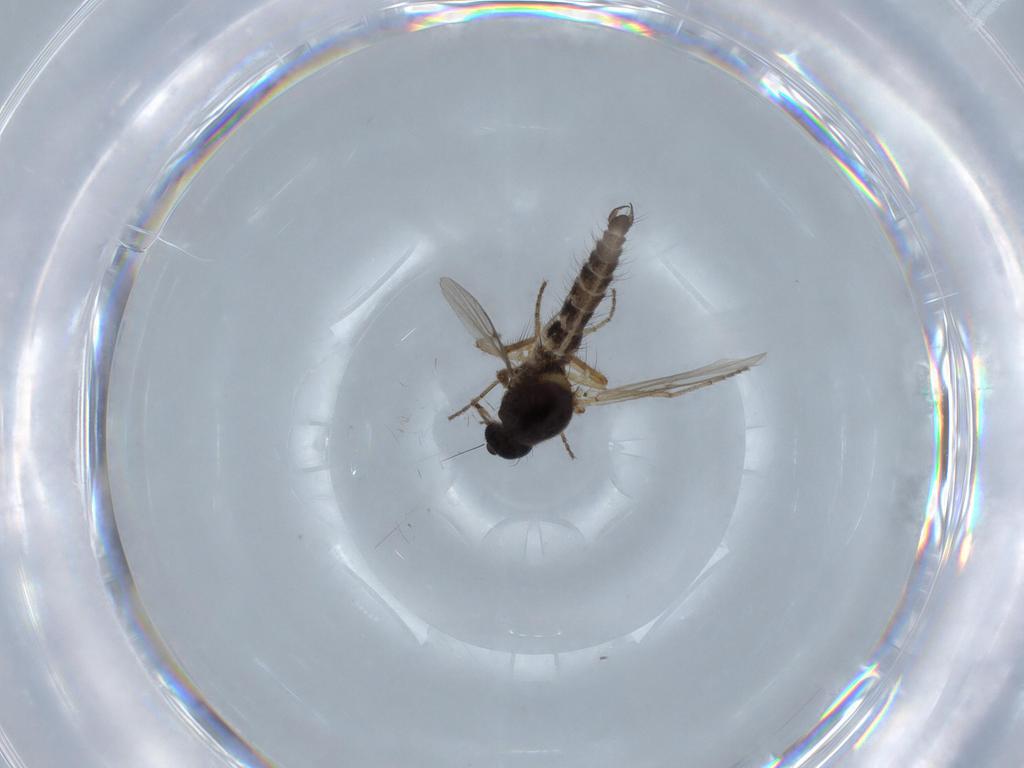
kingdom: Animalia
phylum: Arthropoda
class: Insecta
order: Diptera
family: Ceratopogonidae
